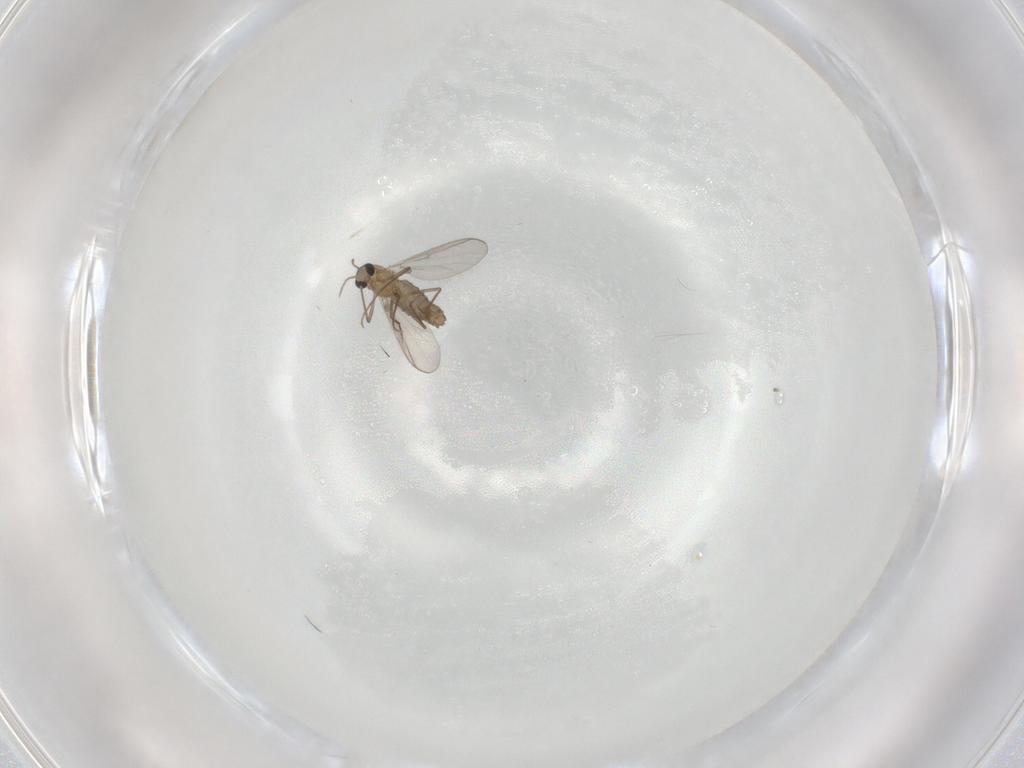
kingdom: Animalia
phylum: Arthropoda
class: Insecta
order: Diptera
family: Chironomidae
